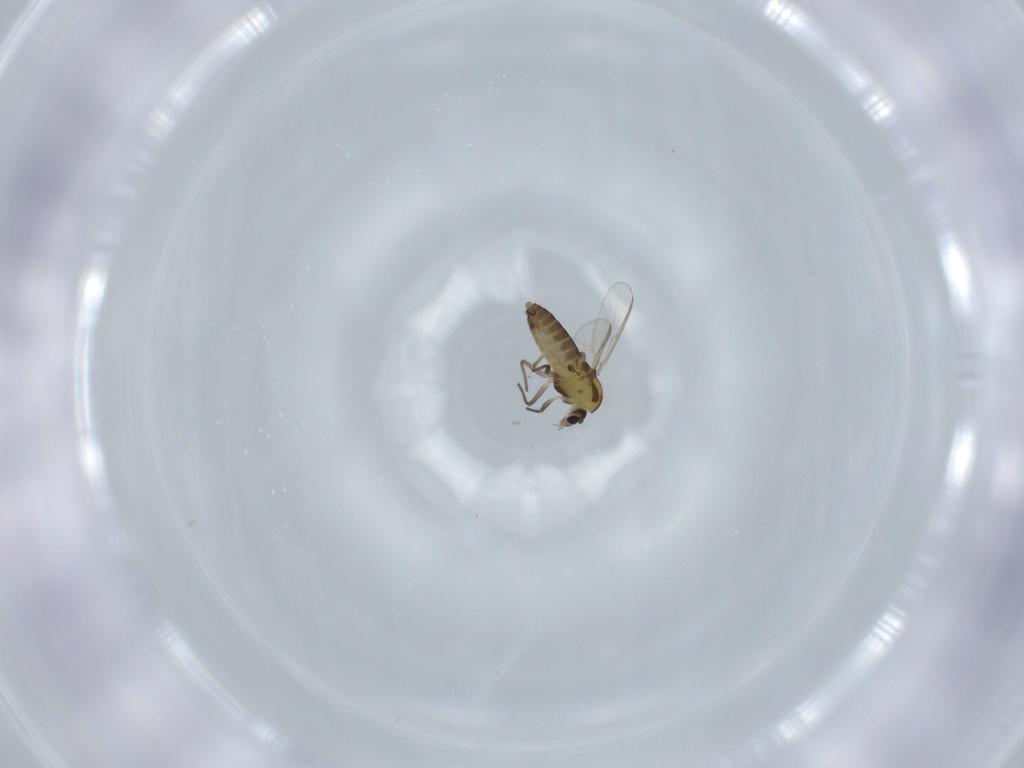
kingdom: Animalia
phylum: Arthropoda
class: Insecta
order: Diptera
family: Chironomidae
